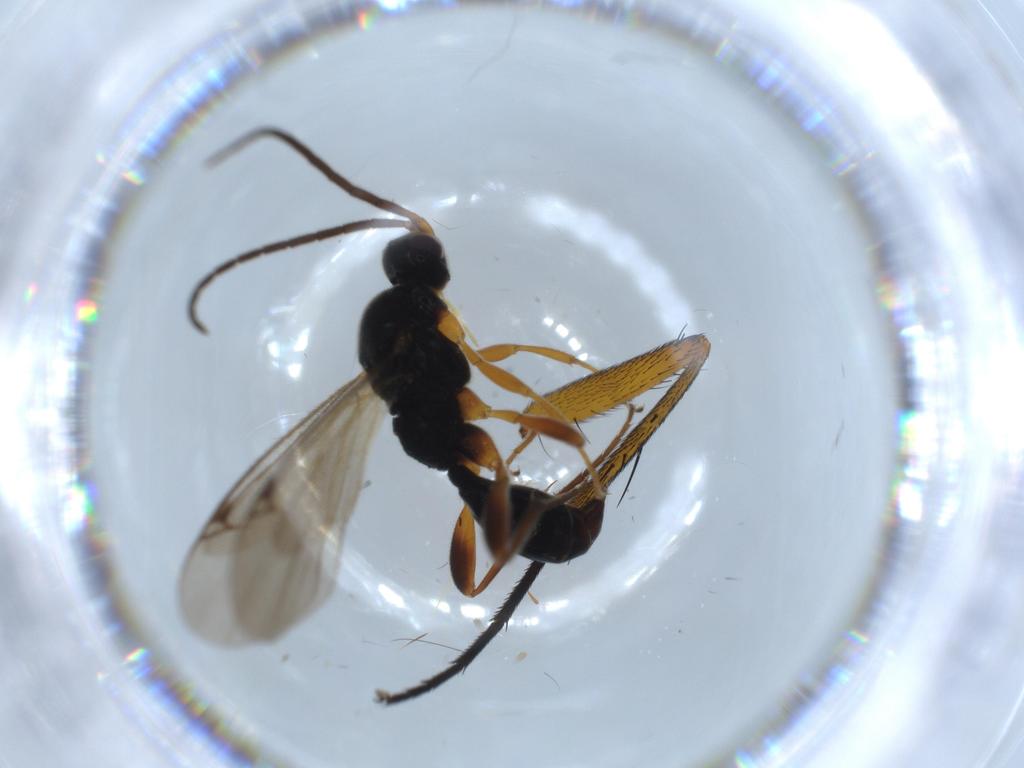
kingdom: Animalia
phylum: Arthropoda
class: Insecta
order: Hymenoptera
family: Proctotrupidae
